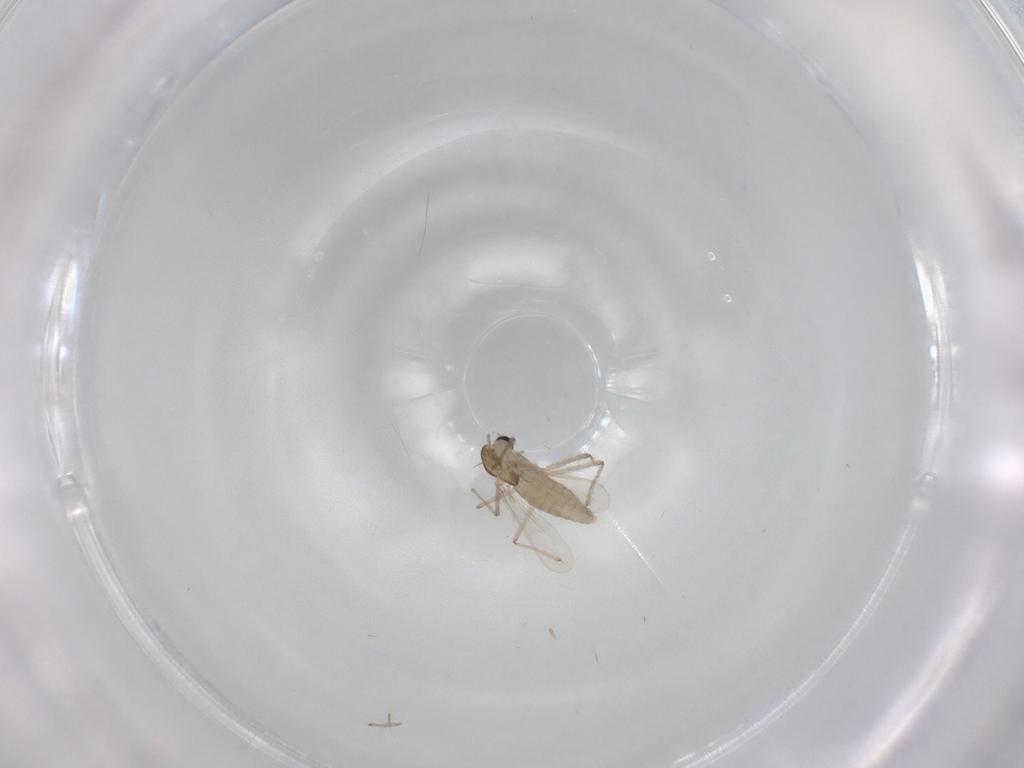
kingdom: Animalia
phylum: Arthropoda
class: Insecta
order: Diptera
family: Chironomidae
